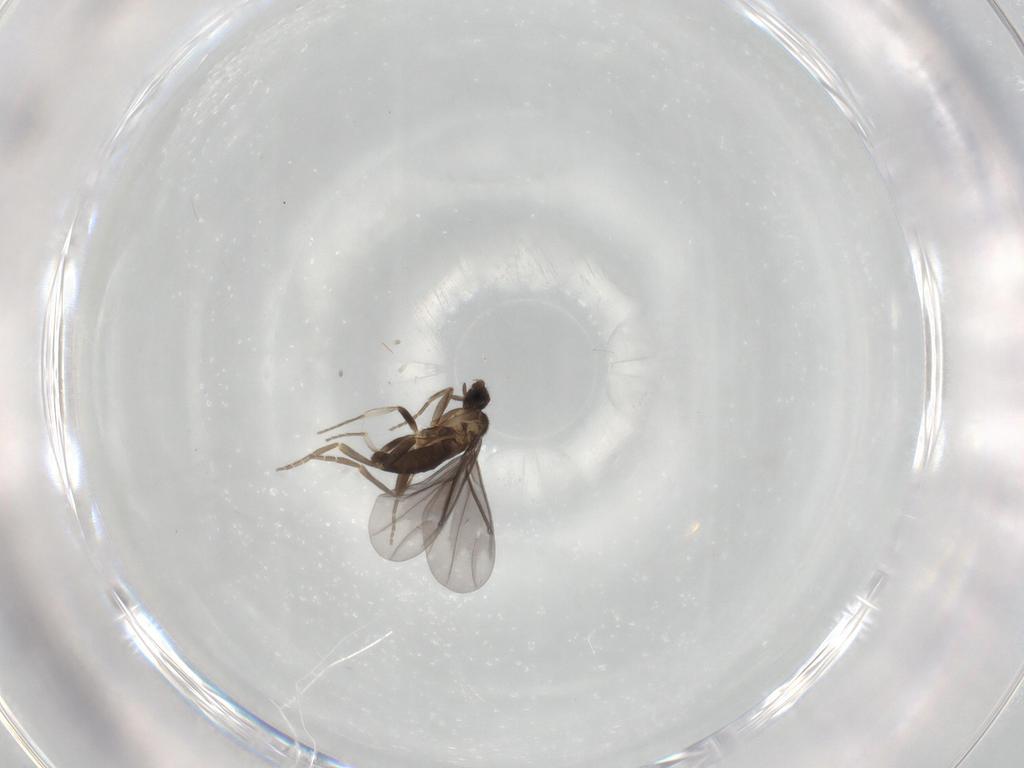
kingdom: Animalia
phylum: Arthropoda
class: Insecta
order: Diptera
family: Phoridae
